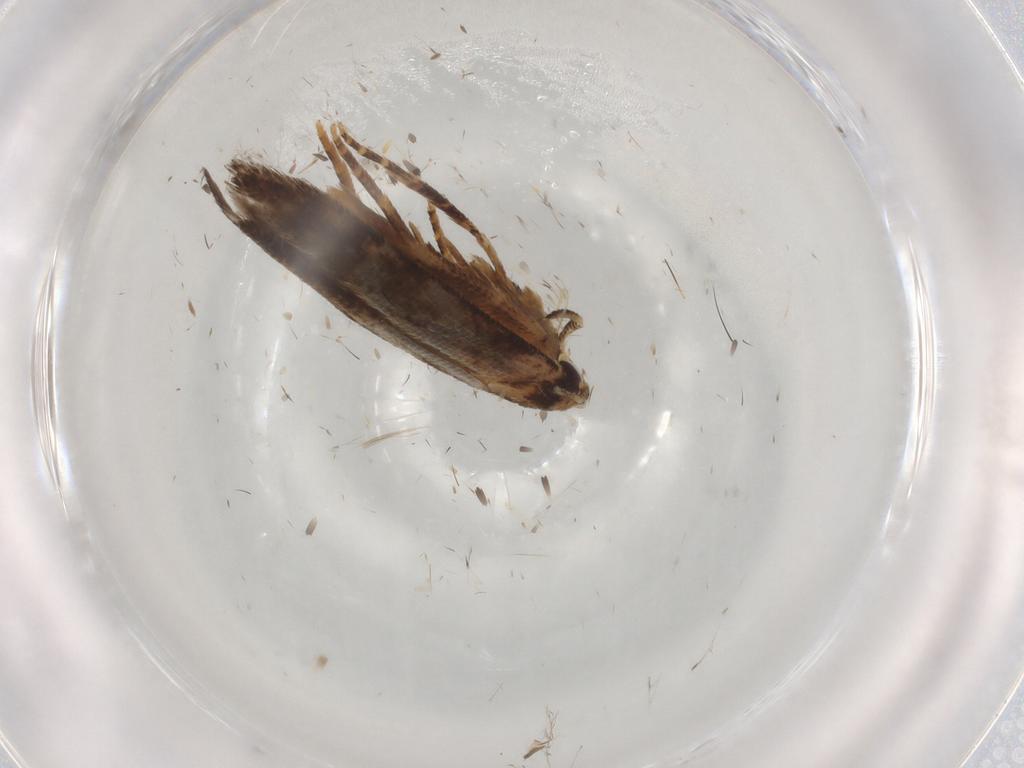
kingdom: Animalia
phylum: Arthropoda
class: Insecta
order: Lepidoptera
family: Cosmopterigidae
